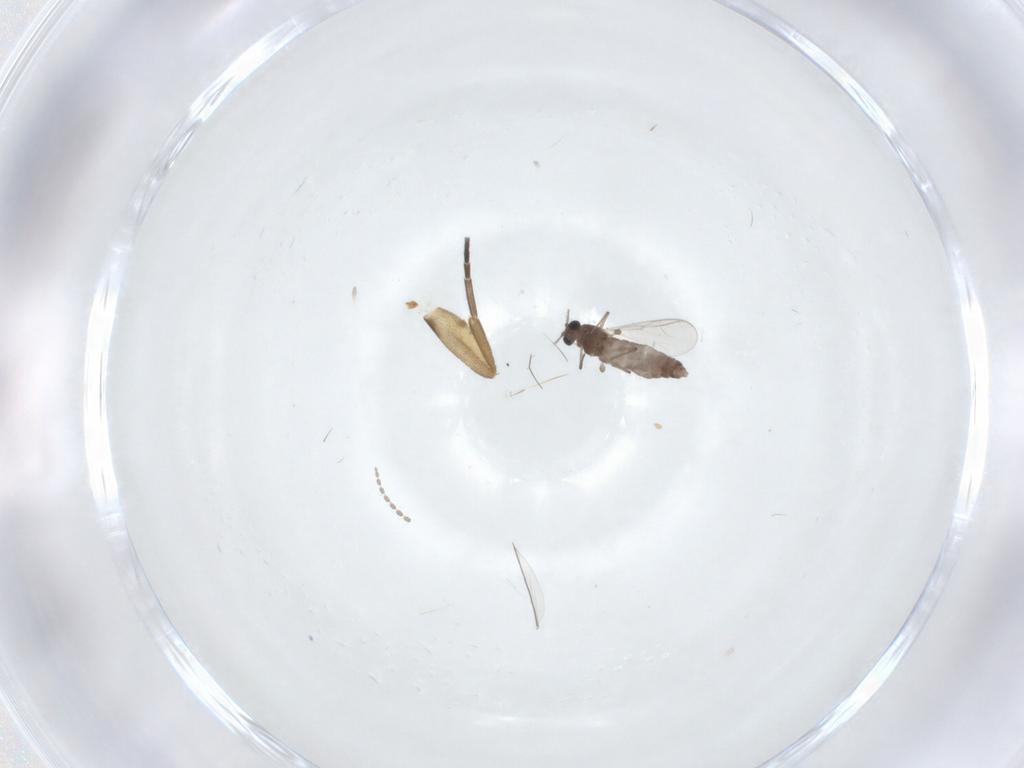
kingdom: Animalia
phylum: Arthropoda
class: Insecta
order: Diptera
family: Chironomidae
